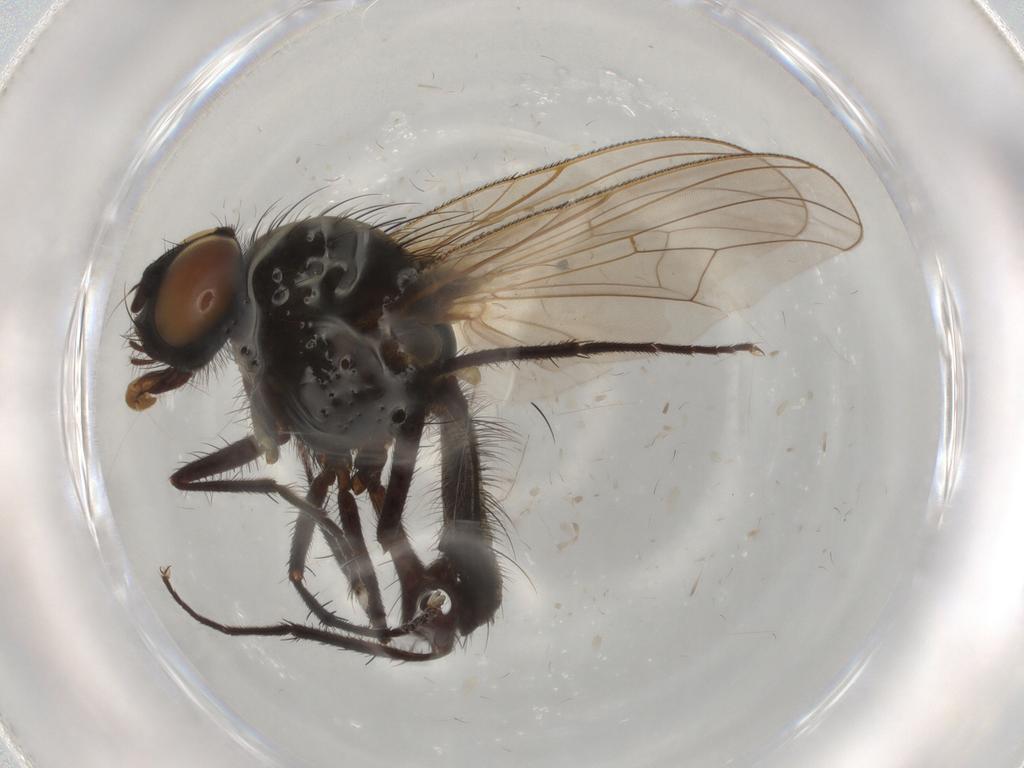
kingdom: Animalia
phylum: Arthropoda
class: Insecta
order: Diptera
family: Anthomyiidae
